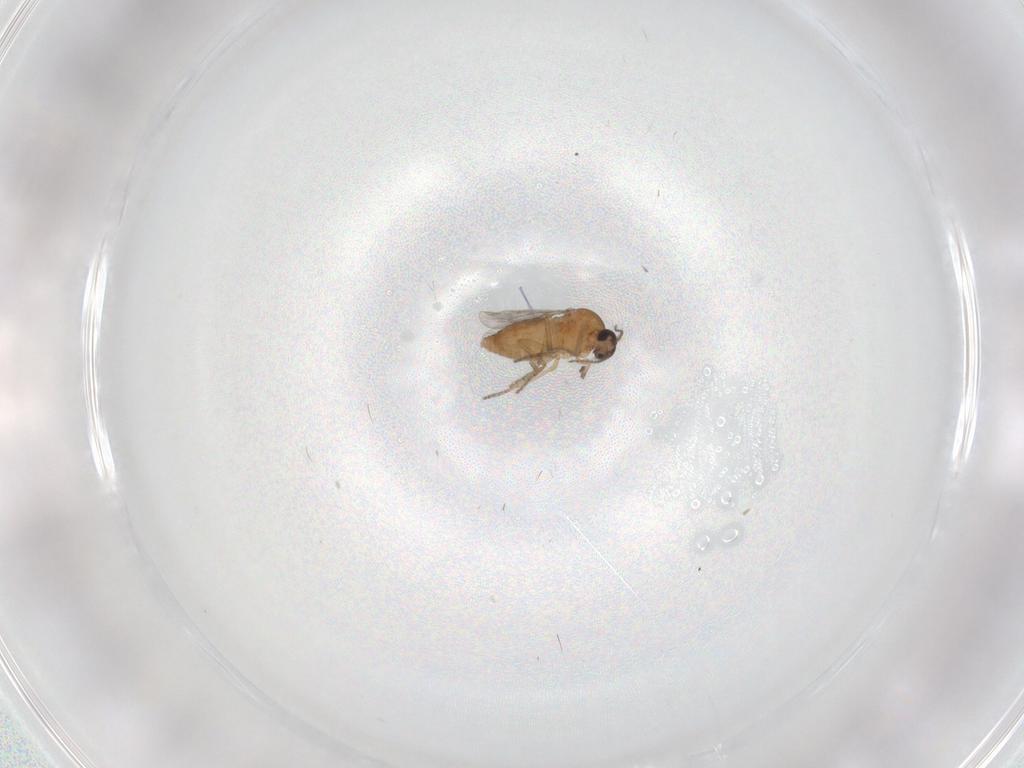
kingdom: Animalia
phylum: Arthropoda
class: Insecta
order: Diptera
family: Ceratopogonidae
